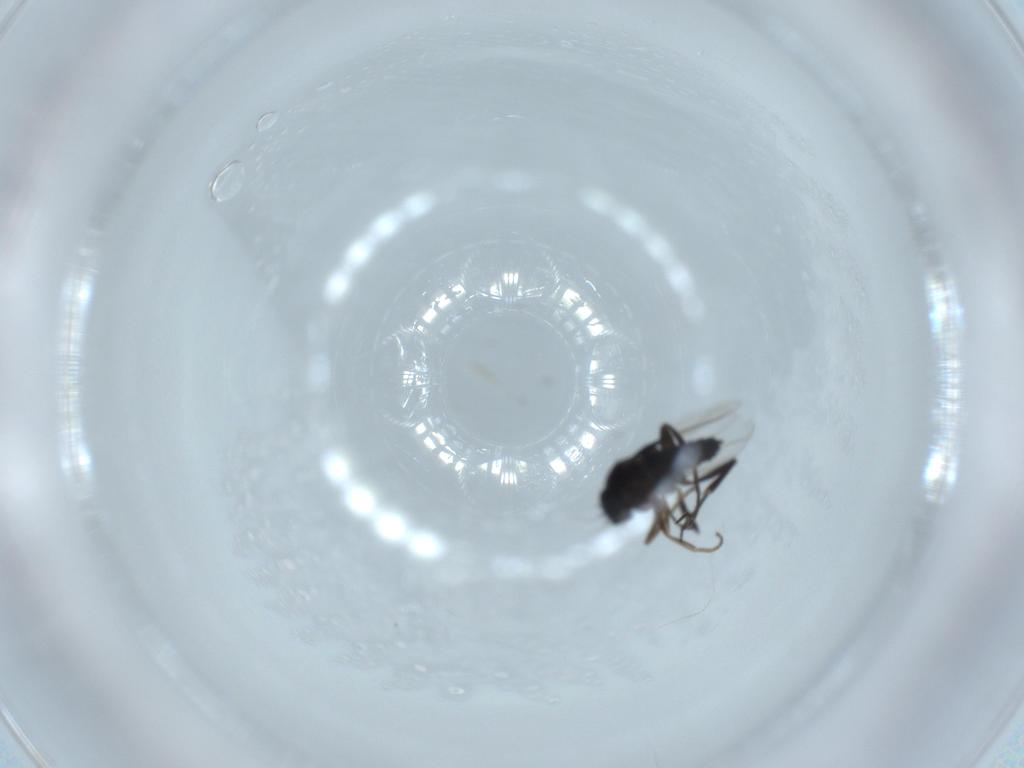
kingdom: Animalia
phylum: Arthropoda
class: Insecta
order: Diptera
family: Phoridae
